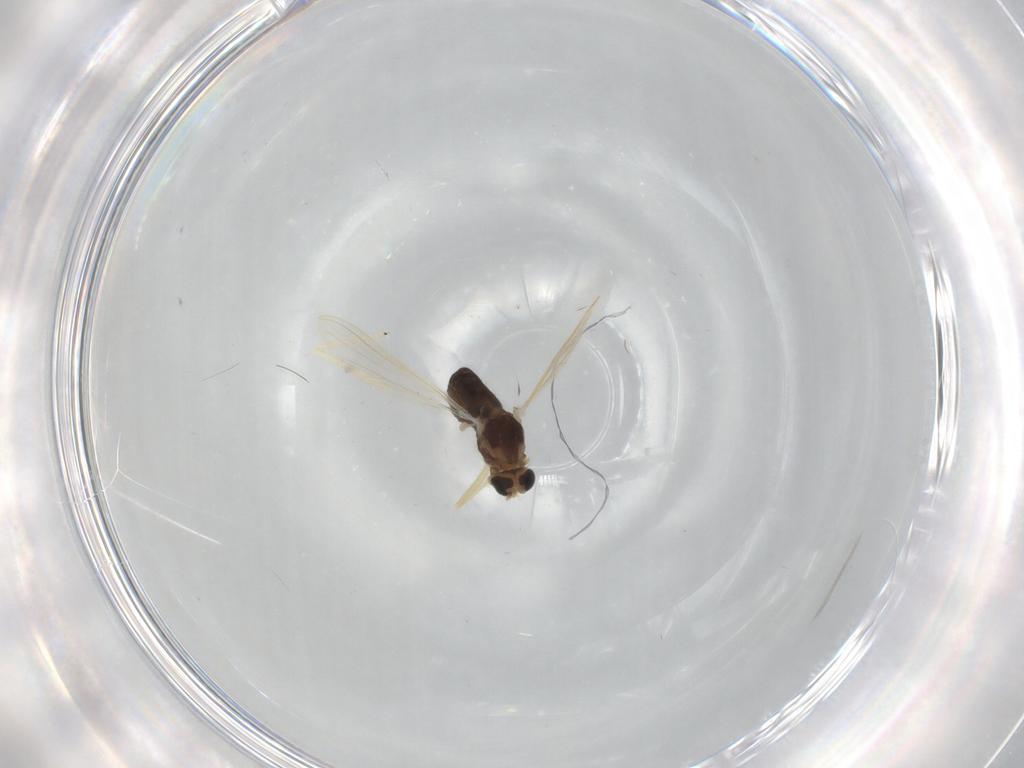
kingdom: Animalia
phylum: Arthropoda
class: Insecta
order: Diptera
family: Chironomidae
